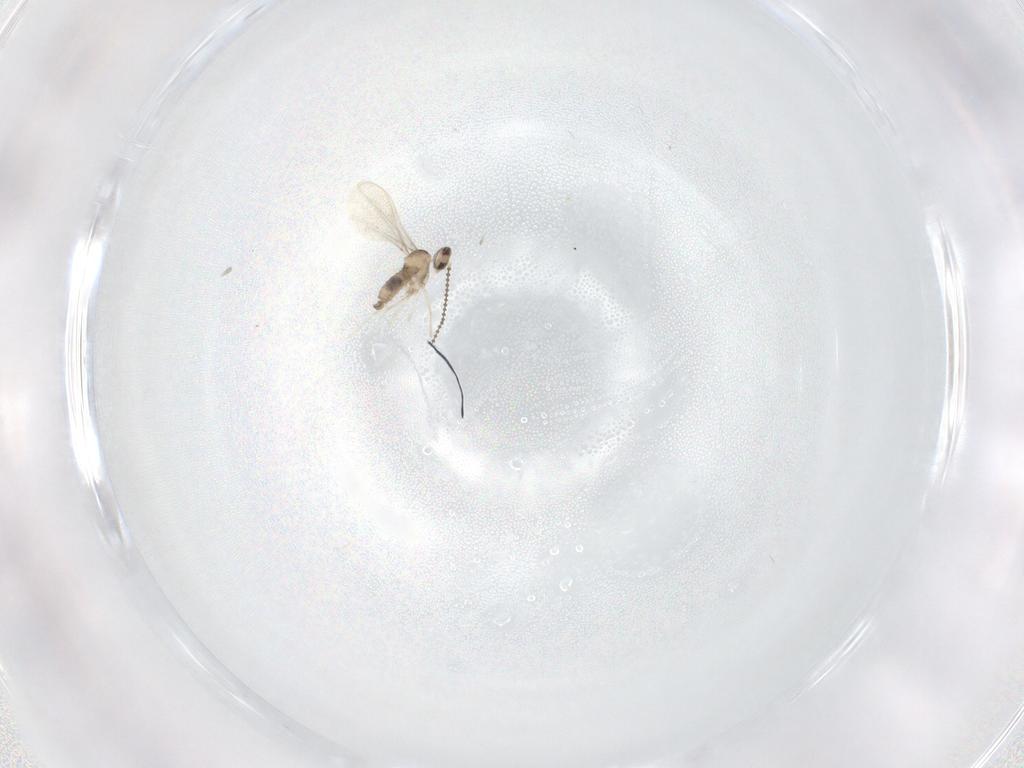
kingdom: Animalia
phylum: Arthropoda
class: Insecta
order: Diptera
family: Cecidomyiidae
